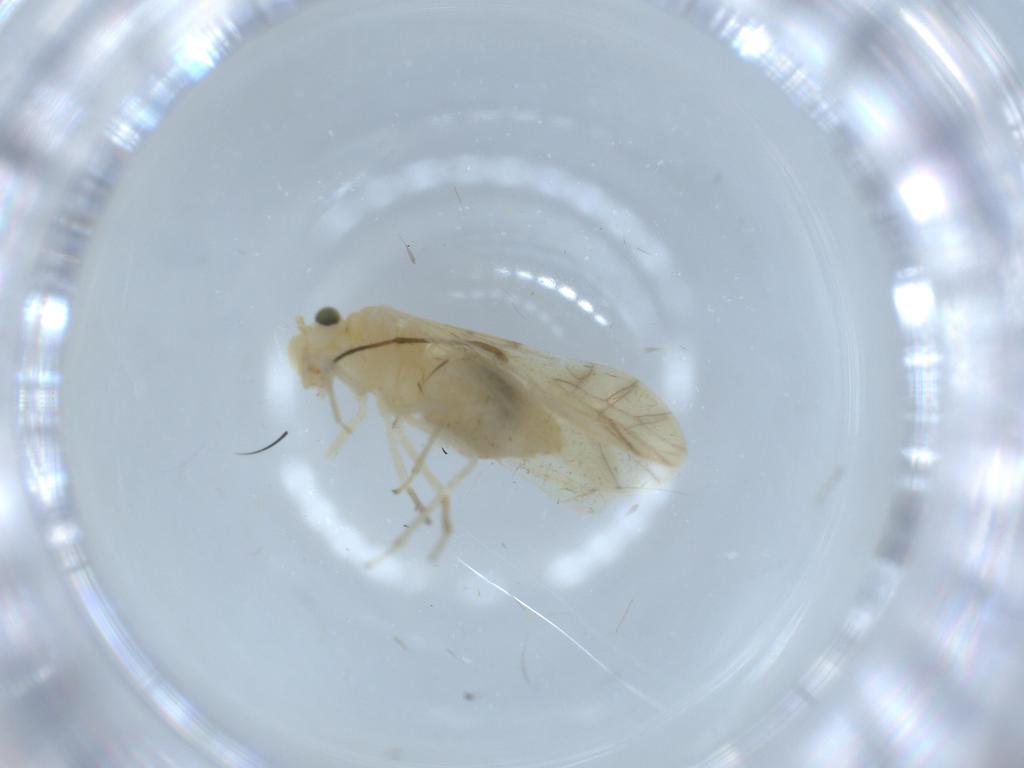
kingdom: Animalia
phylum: Arthropoda
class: Insecta
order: Psocodea
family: Caeciliusidae
